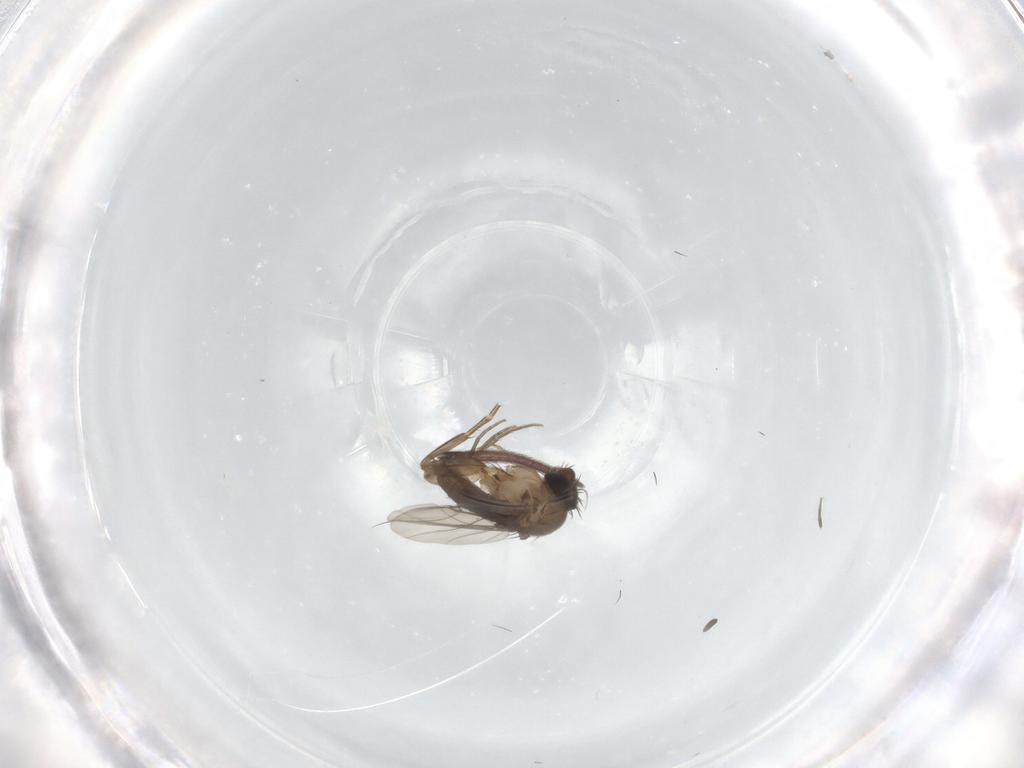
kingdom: Animalia
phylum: Arthropoda
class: Insecta
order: Diptera
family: Phoridae
